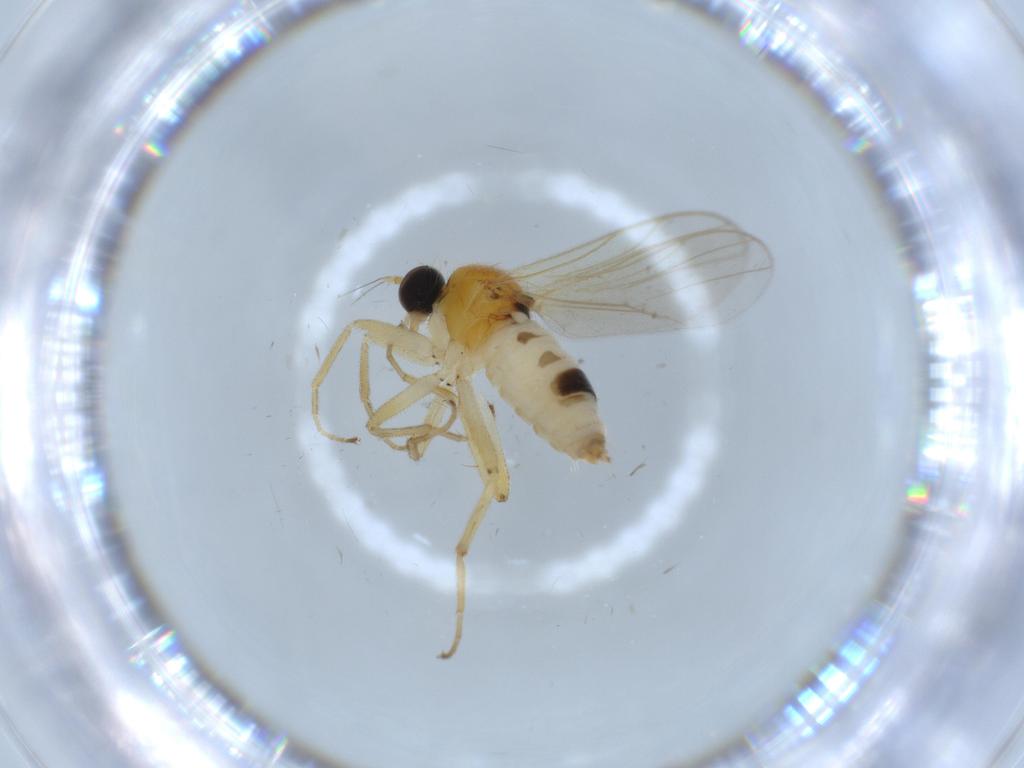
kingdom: Animalia
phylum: Arthropoda
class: Insecta
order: Diptera
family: Hybotidae
